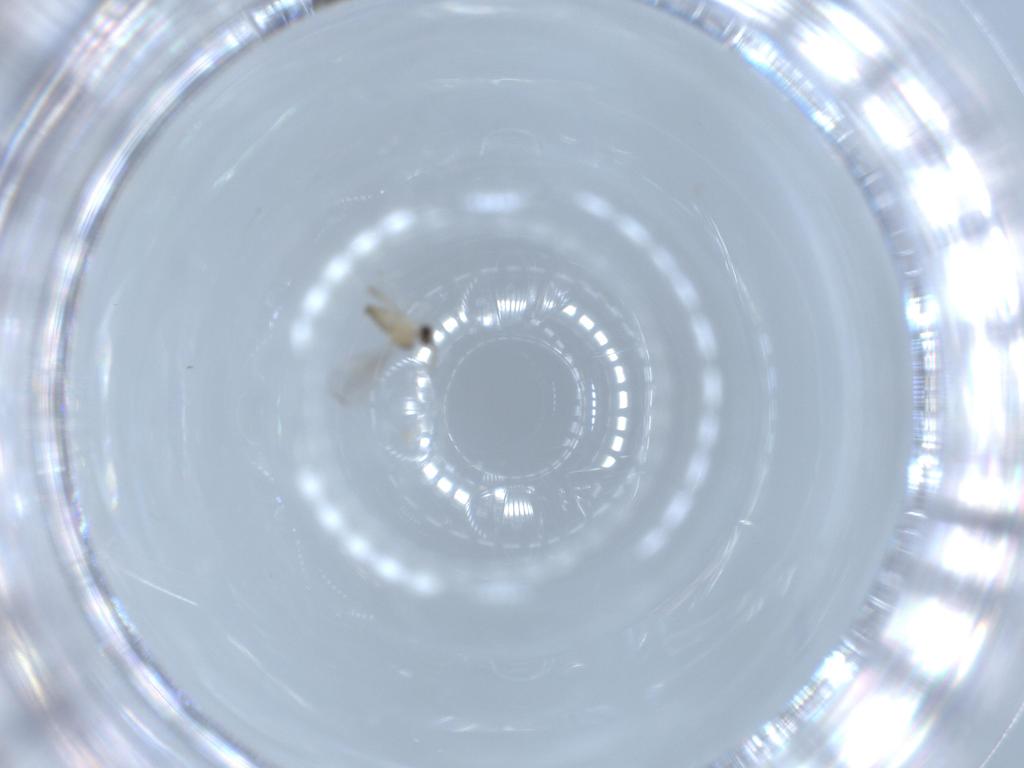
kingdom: Animalia
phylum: Arthropoda
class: Insecta
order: Diptera
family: Cecidomyiidae
